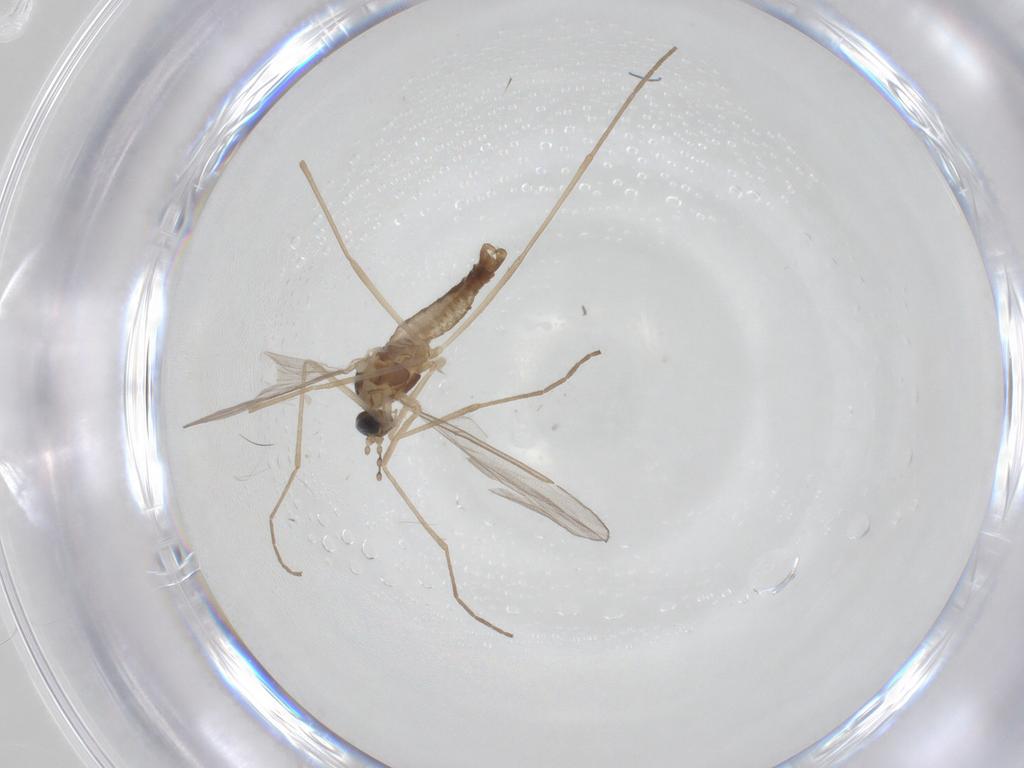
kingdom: Animalia
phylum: Arthropoda
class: Insecta
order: Diptera
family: Cecidomyiidae
